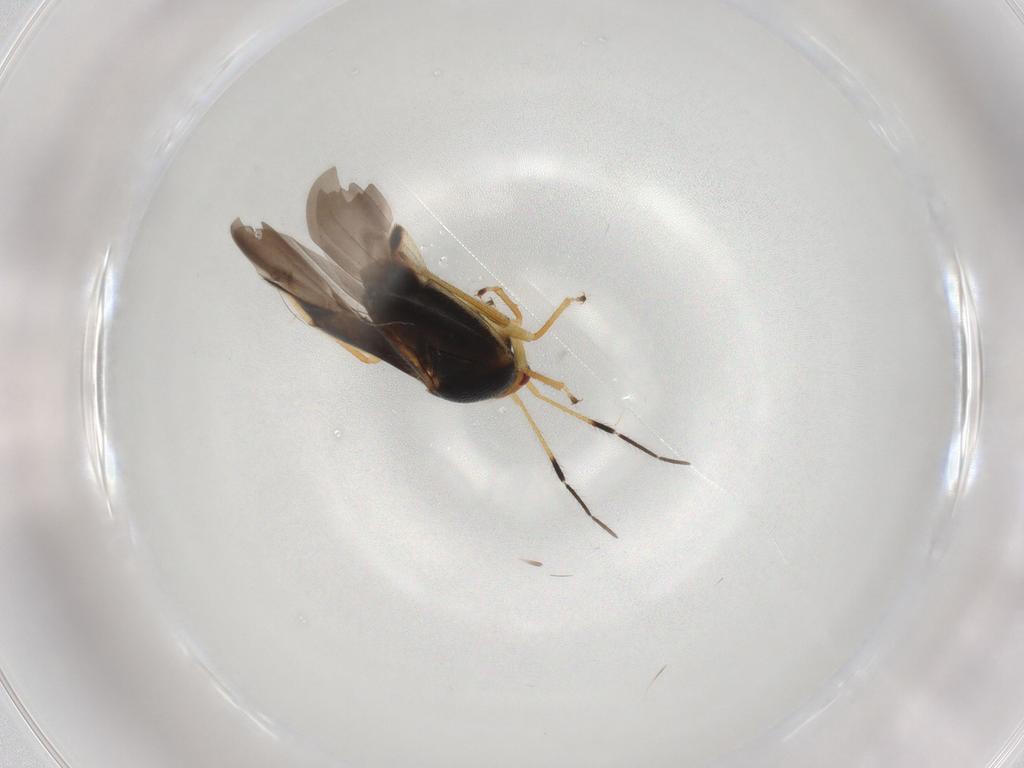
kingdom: Animalia
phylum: Arthropoda
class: Insecta
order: Hemiptera
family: Miridae
